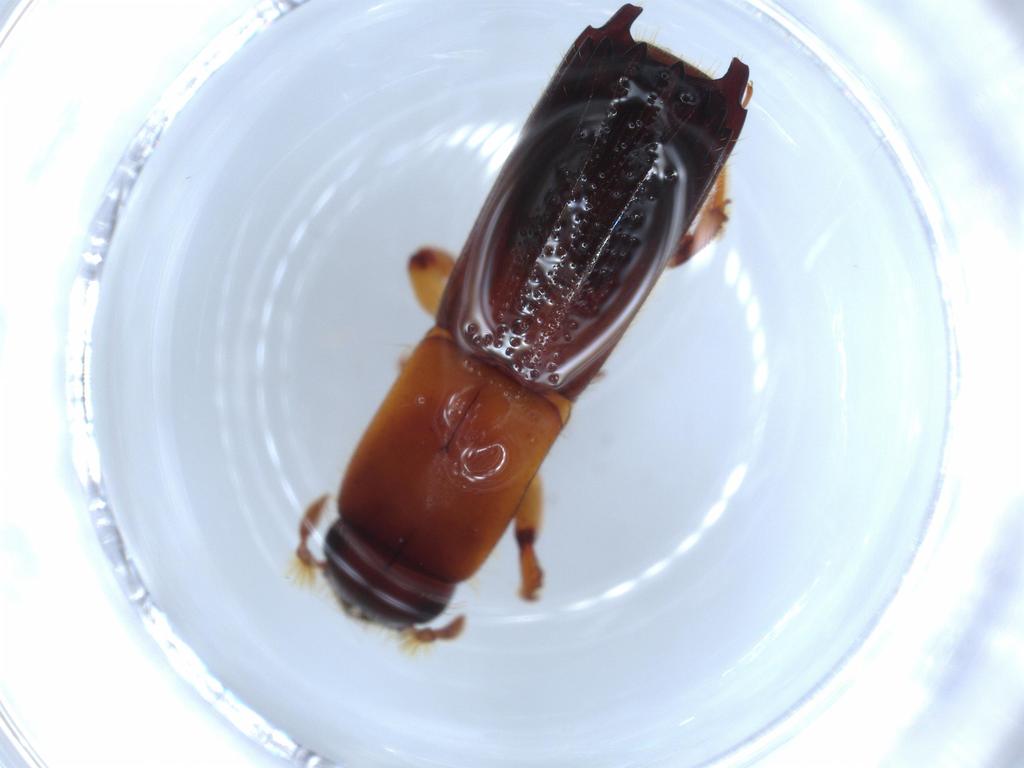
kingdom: Animalia
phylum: Arthropoda
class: Insecta
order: Coleoptera
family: Curculionidae
